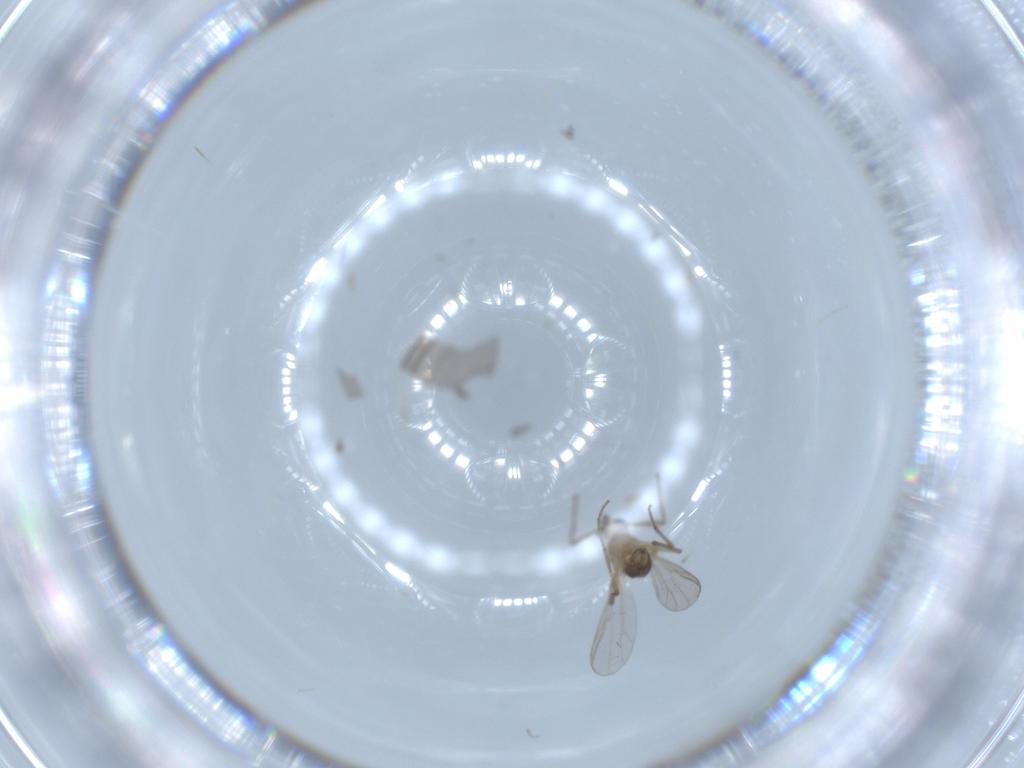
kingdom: Animalia
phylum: Arthropoda
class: Insecta
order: Diptera
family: Chironomidae
